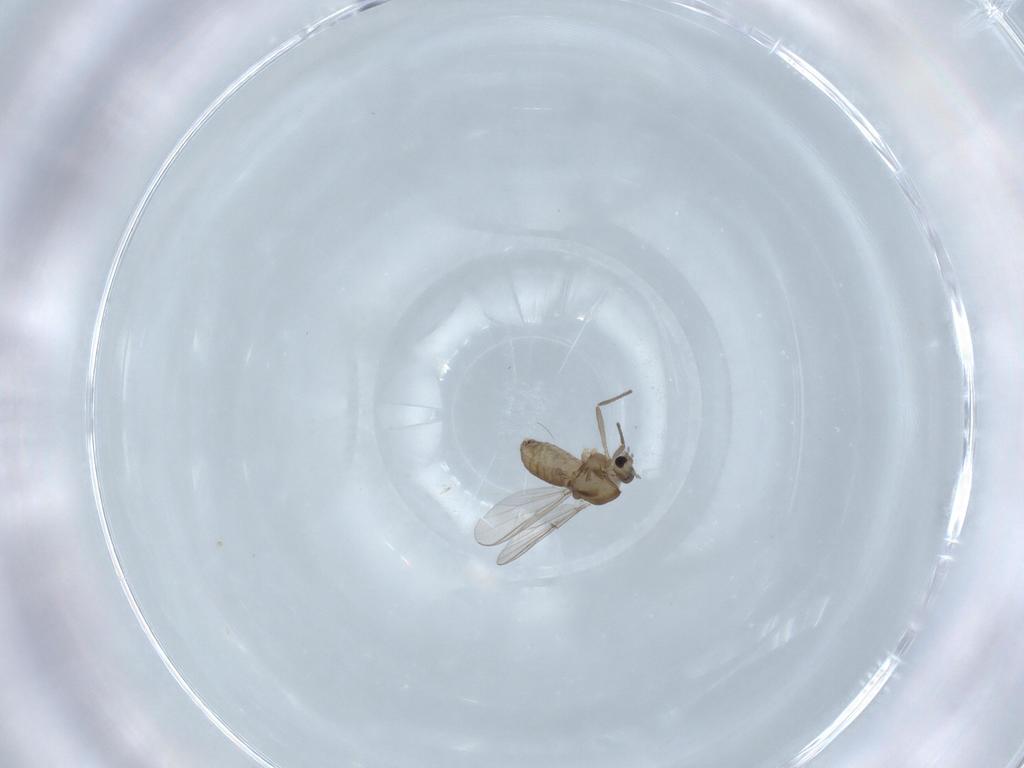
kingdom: Animalia
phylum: Arthropoda
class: Insecta
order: Diptera
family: Chironomidae
